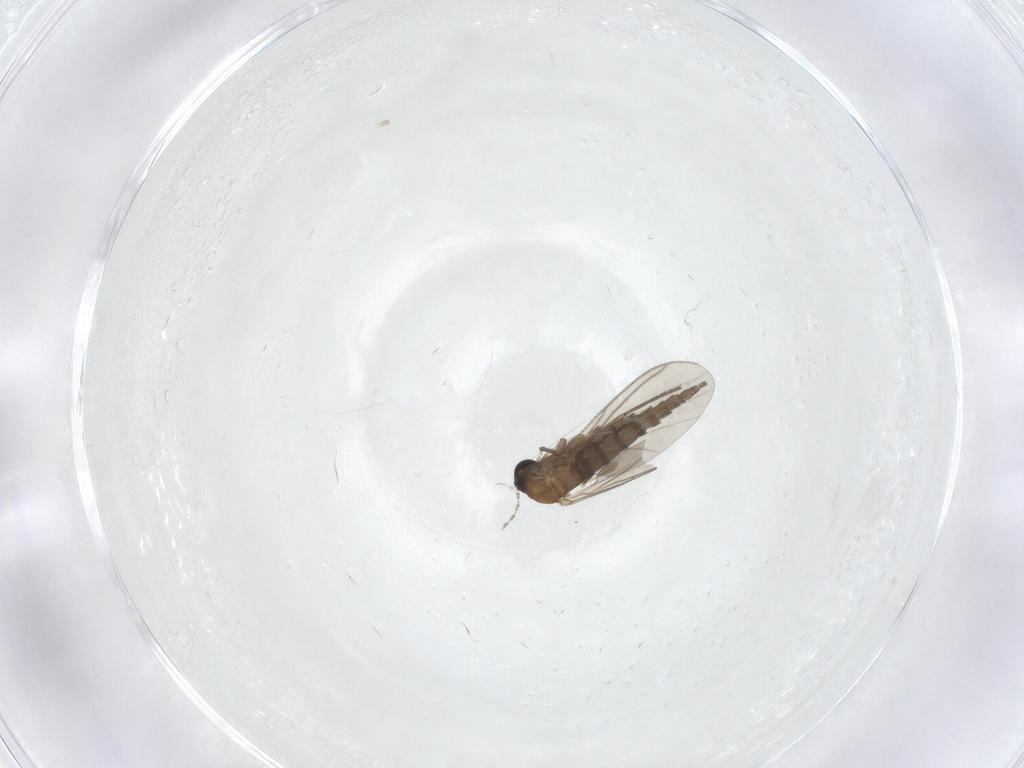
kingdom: Animalia
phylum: Arthropoda
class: Insecta
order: Diptera
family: Sciaridae
